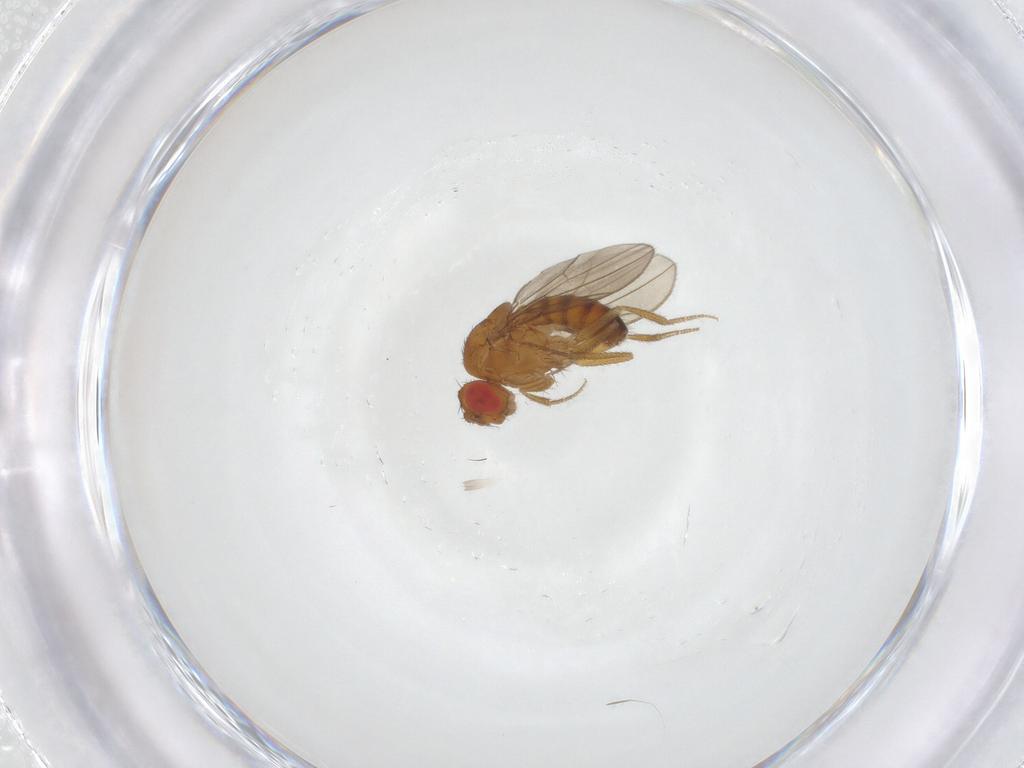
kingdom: Animalia
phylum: Arthropoda
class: Insecta
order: Diptera
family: Drosophilidae
